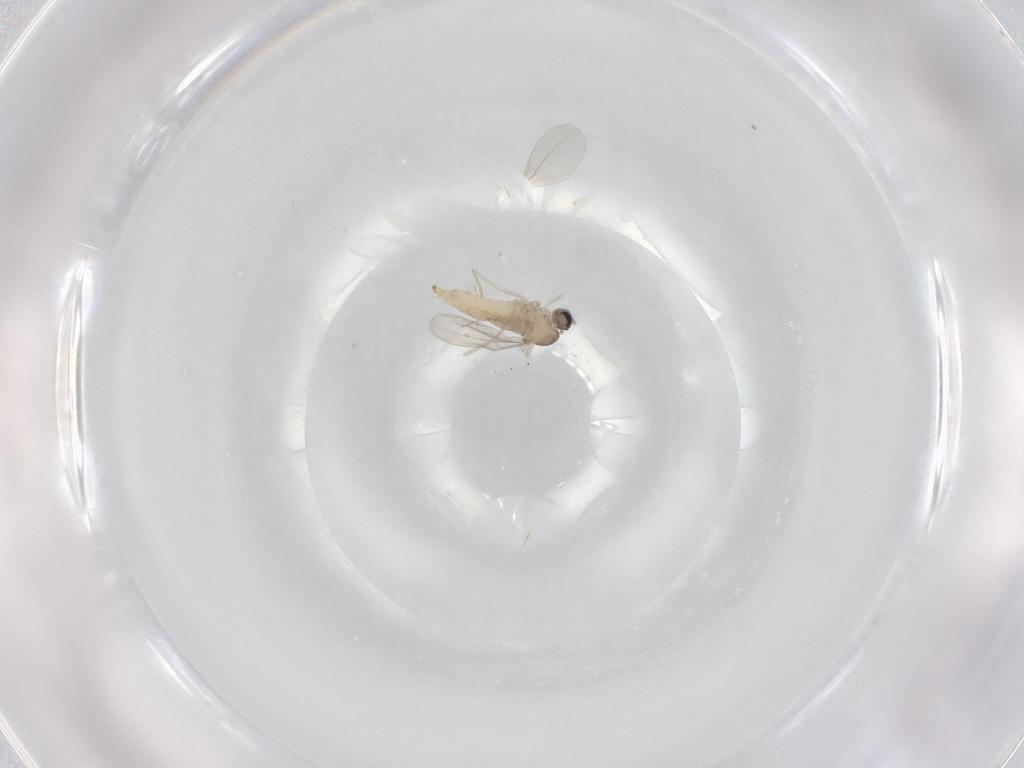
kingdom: Animalia
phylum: Arthropoda
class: Insecta
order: Diptera
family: Cecidomyiidae
